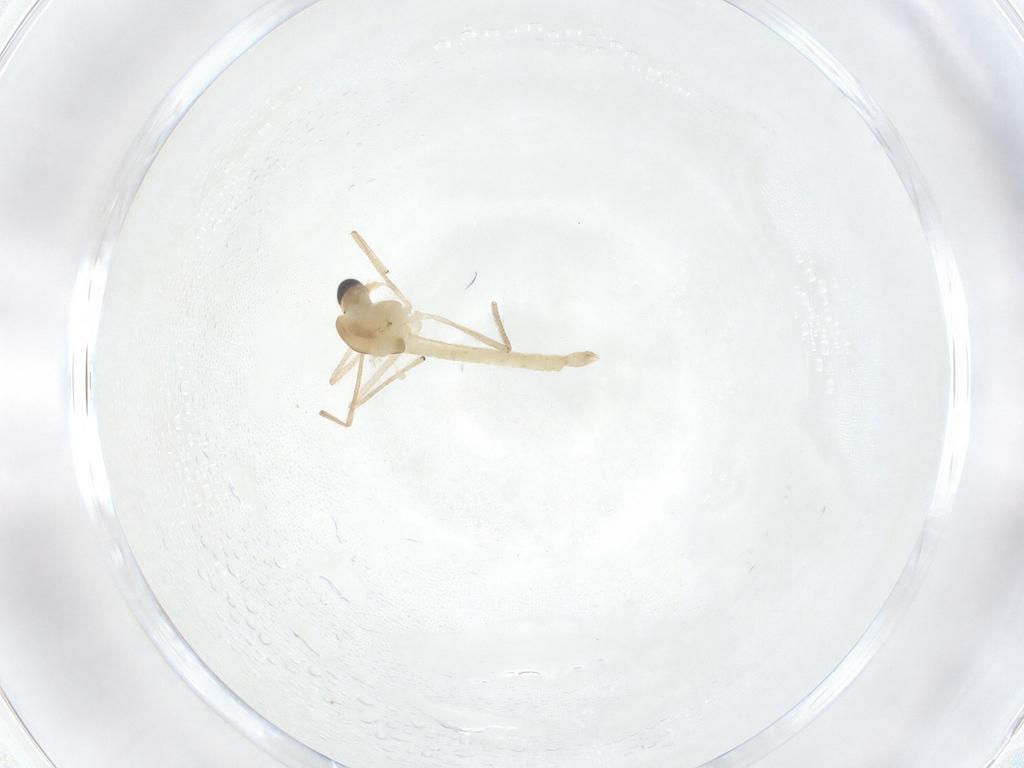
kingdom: Animalia
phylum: Arthropoda
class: Insecta
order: Diptera
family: Chironomidae
